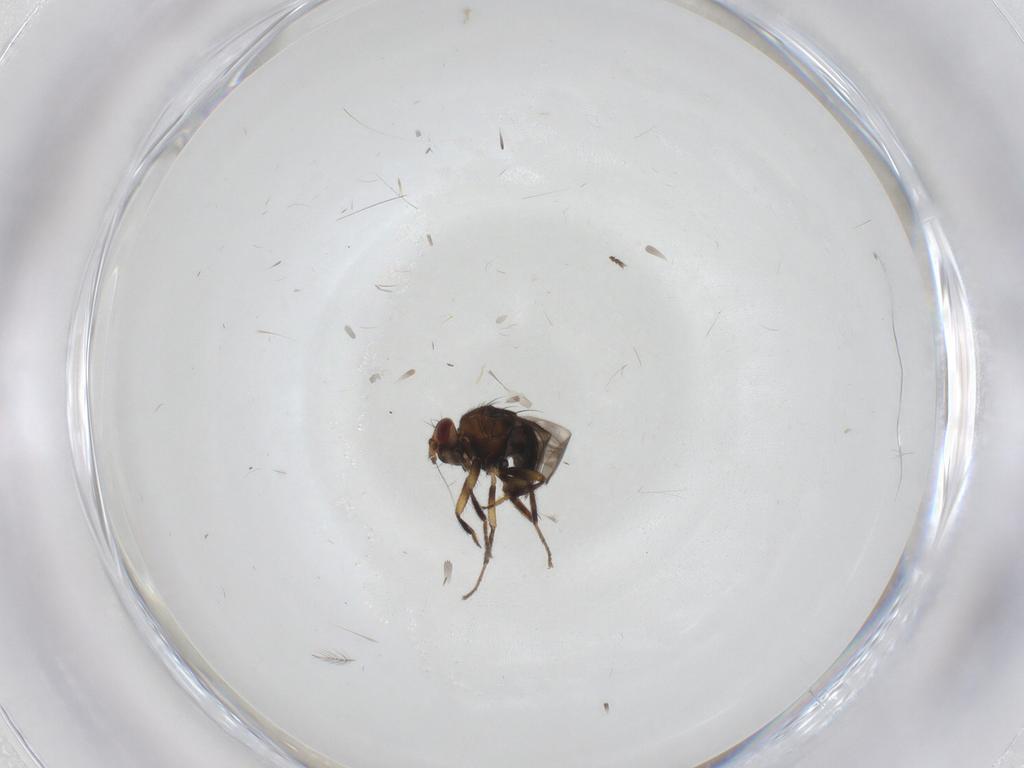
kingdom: Animalia
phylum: Arthropoda
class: Insecta
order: Diptera
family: Sphaeroceridae
